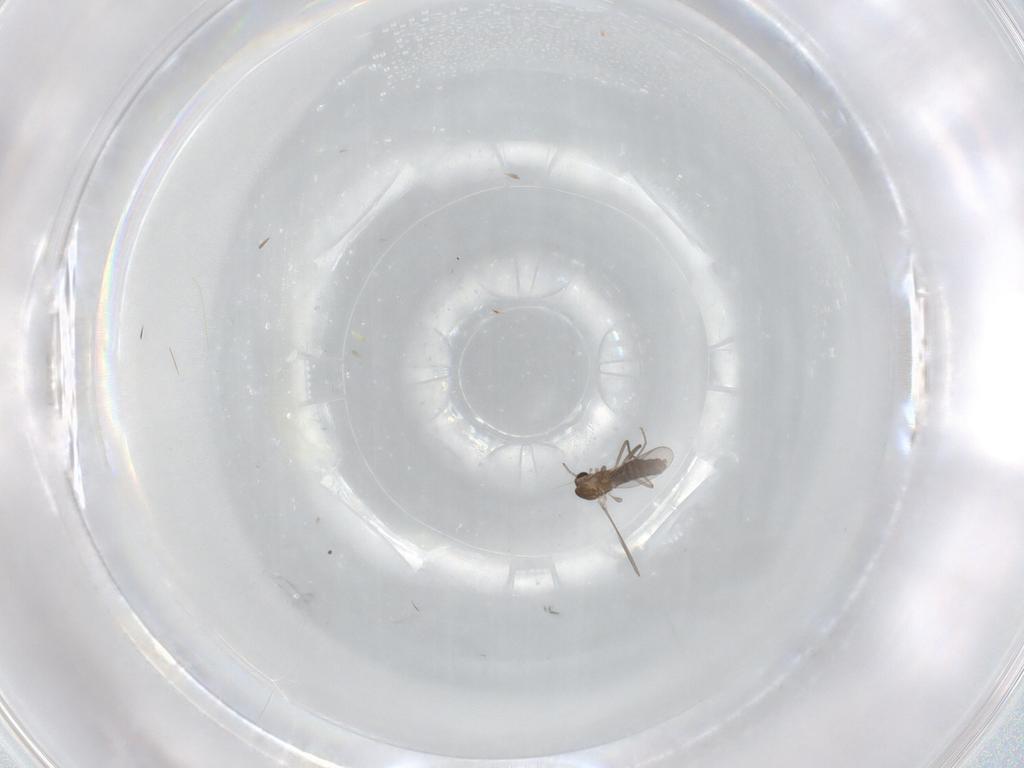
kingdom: Animalia
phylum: Arthropoda
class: Insecta
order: Diptera
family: Chironomidae
